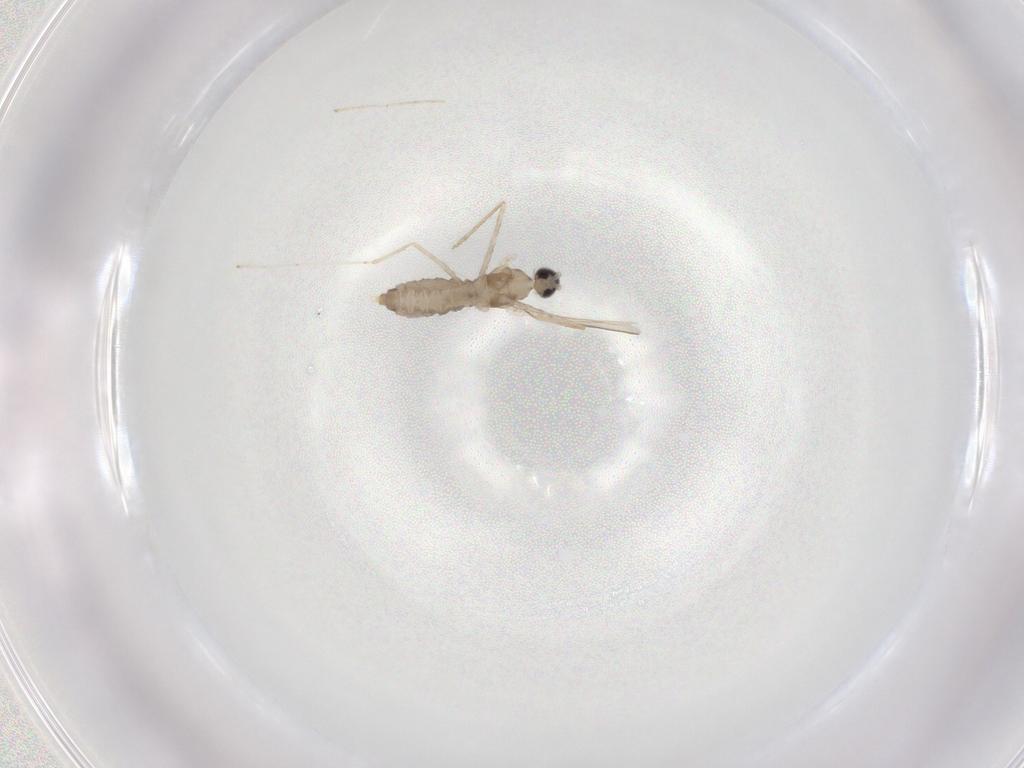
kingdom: Animalia
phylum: Arthropoda
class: Insecta
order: Diptera
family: Cecidomyiidae
